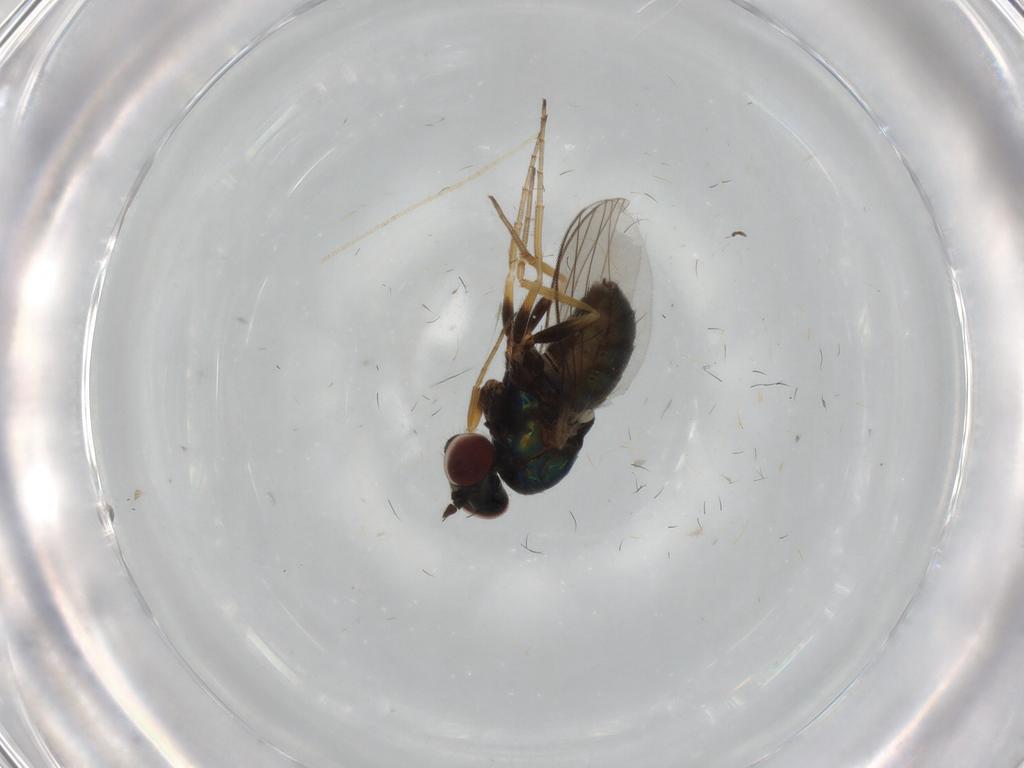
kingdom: Animalia
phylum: Arthropoda
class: Insecta
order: Diptera
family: Dolichopodidae
